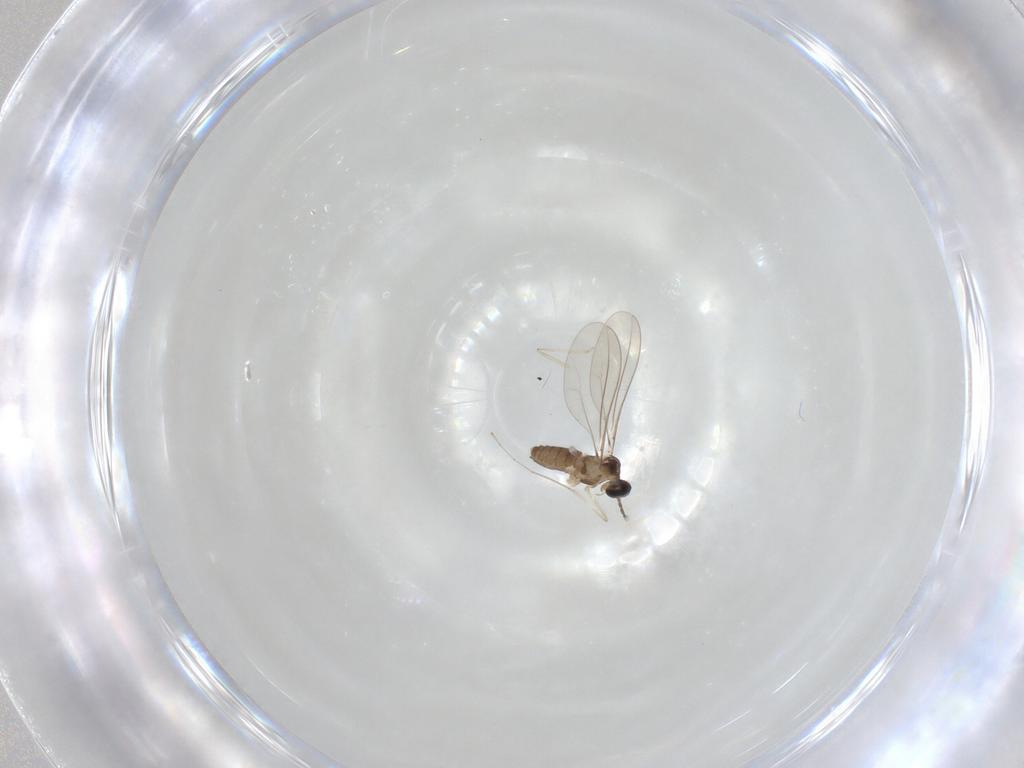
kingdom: Animalia
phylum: Arthropoda
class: Insecta
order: Diptera
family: Cecidomyiidae
